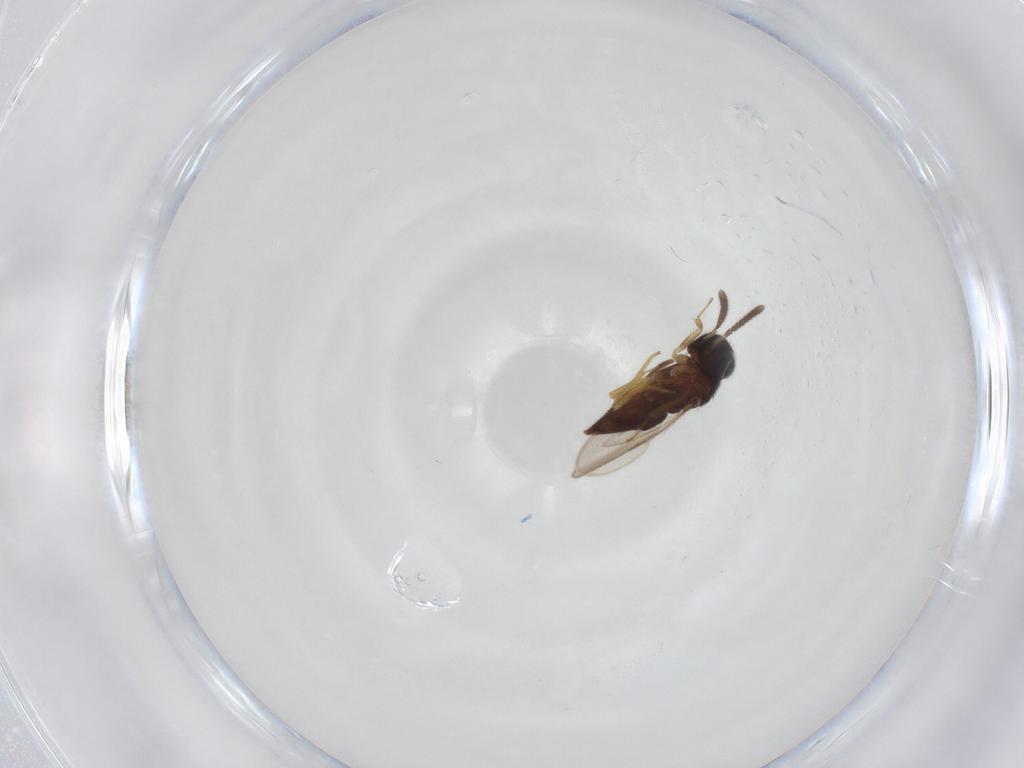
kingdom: Animalia
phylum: Arthropoda
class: Insecta
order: Hymenoptera
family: Encyrtidae
